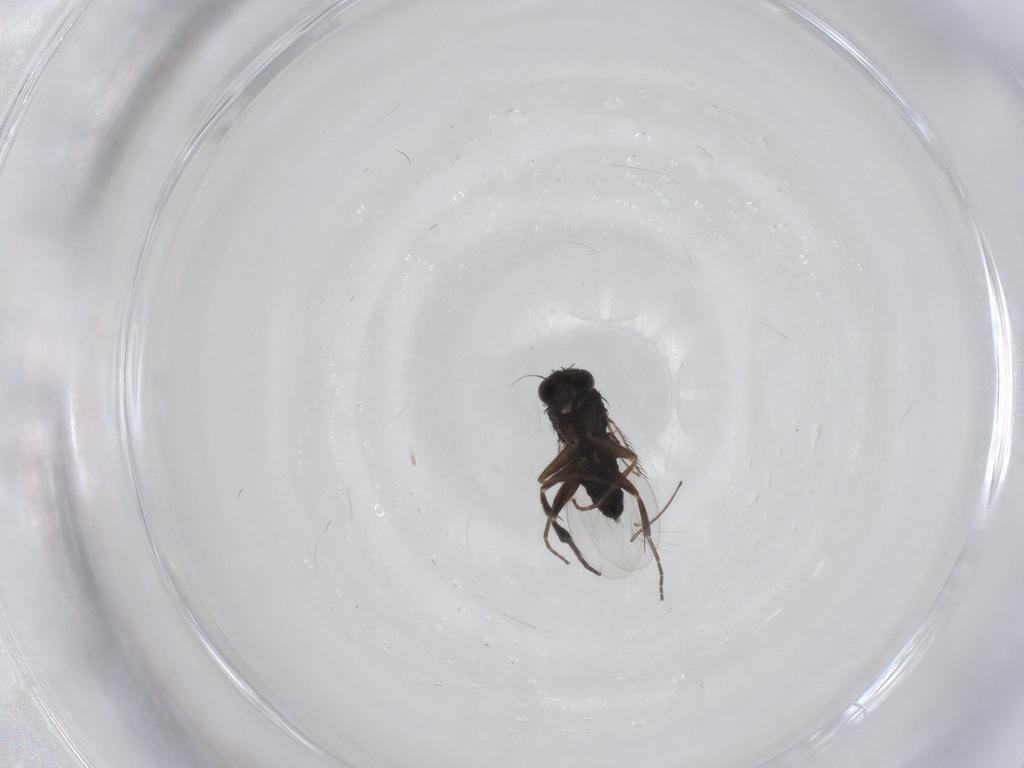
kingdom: Animalia
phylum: Arthropoda
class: Insecta
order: Diptera
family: Phoridae
